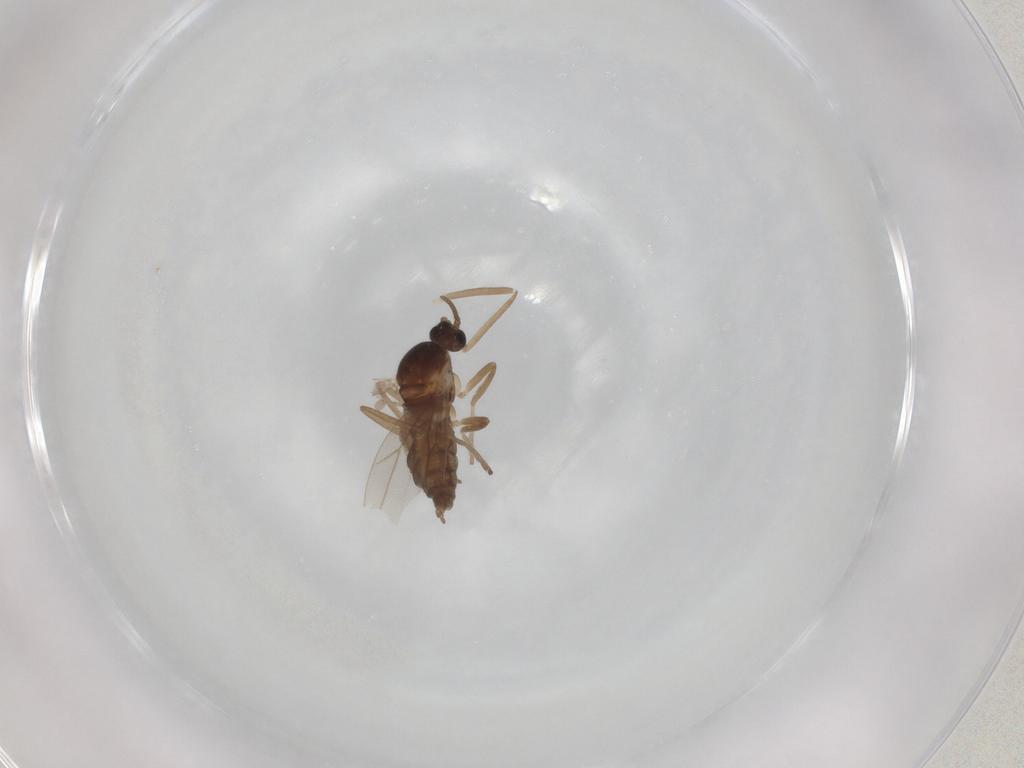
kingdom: Animalia
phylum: Arthropoda
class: Insecta
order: Diptera
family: Cecidomyiidae
